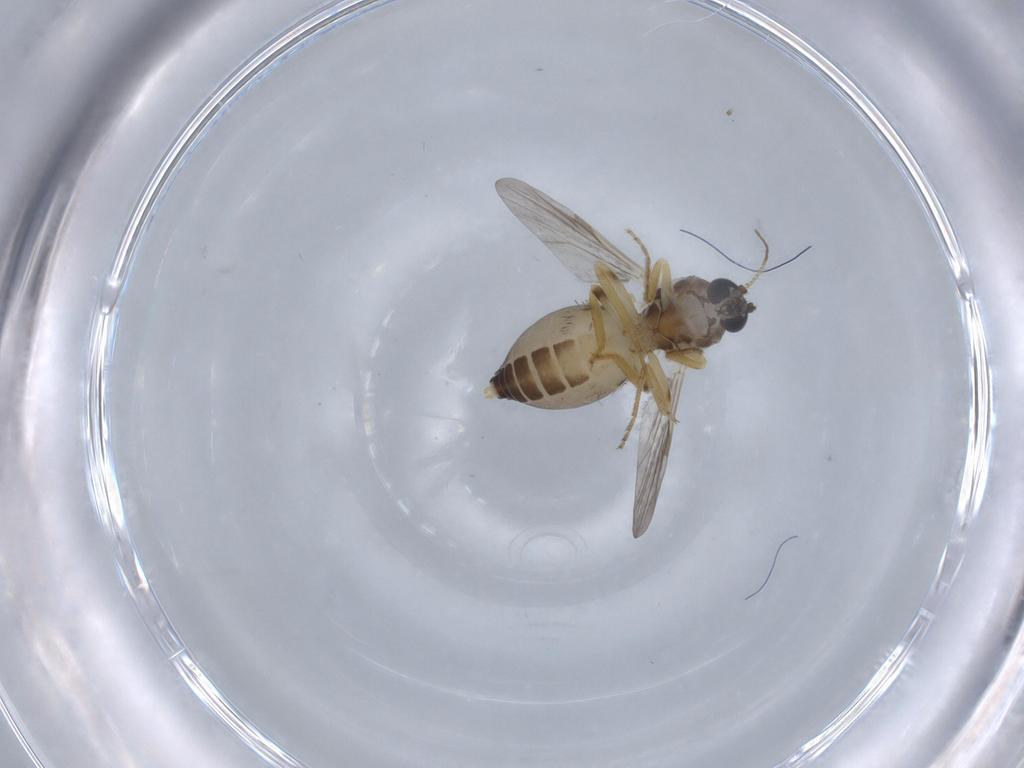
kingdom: Animalia
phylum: Arthropoda
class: Insecta
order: Diptera
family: Ceratopogonidae
